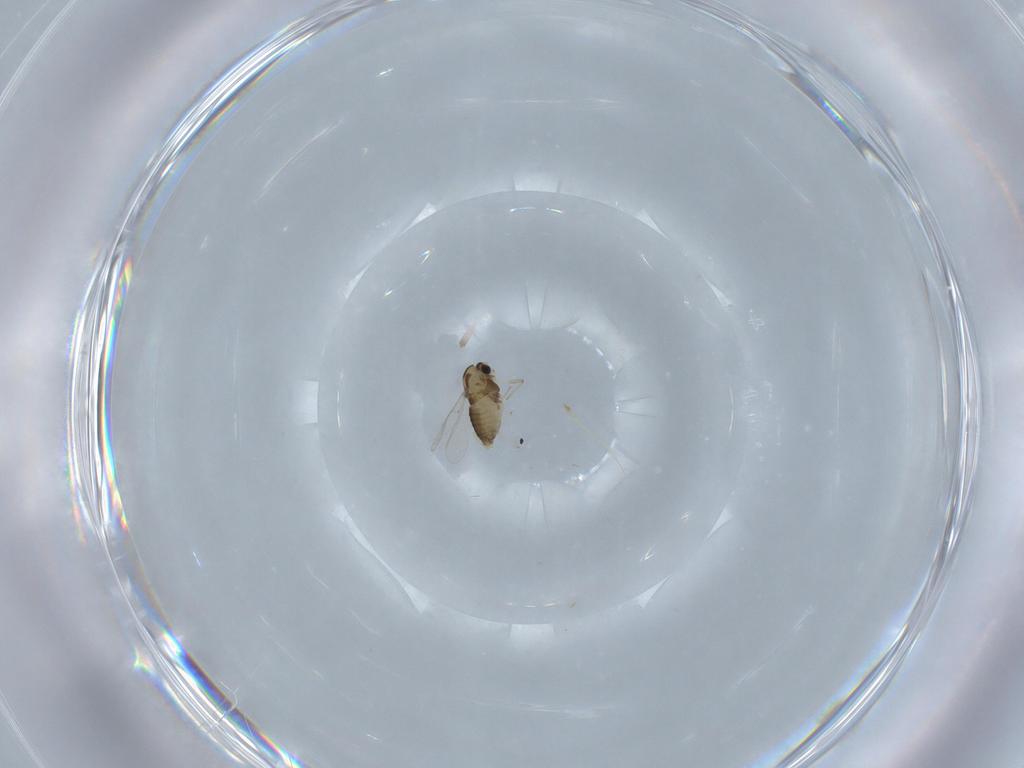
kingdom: Animalia
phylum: Arthropoda
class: Insecta
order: Diptera
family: Chironomidae
